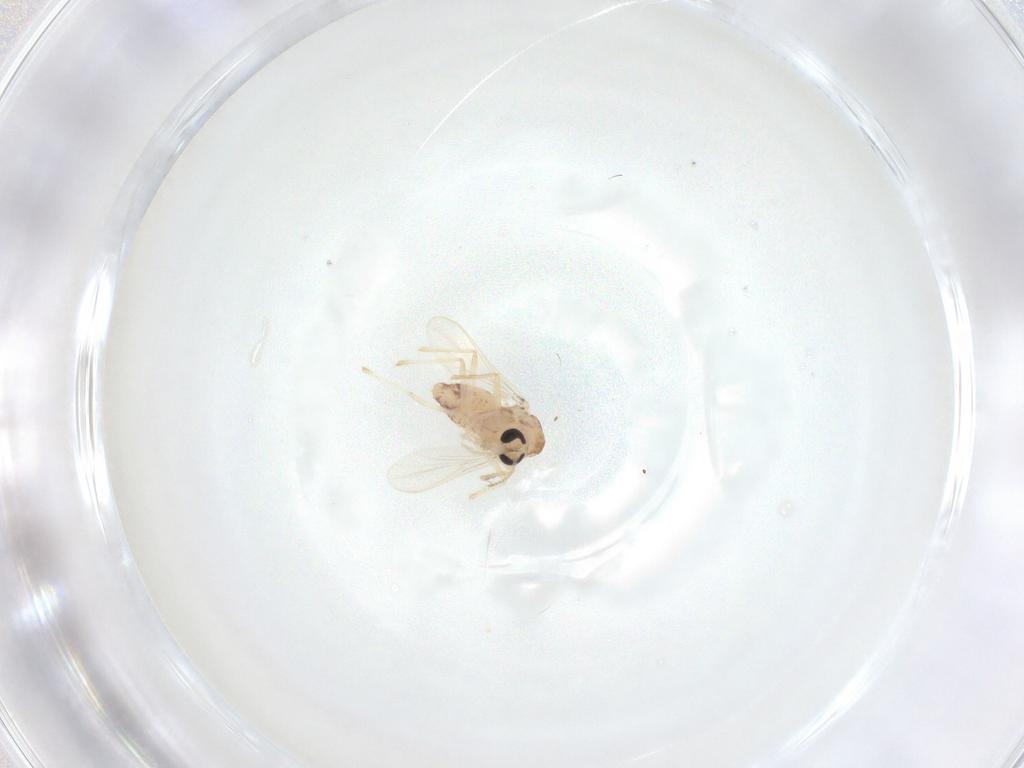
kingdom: Animalia
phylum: Arthropoda
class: Insecta
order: Diptera
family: Chironomidae
